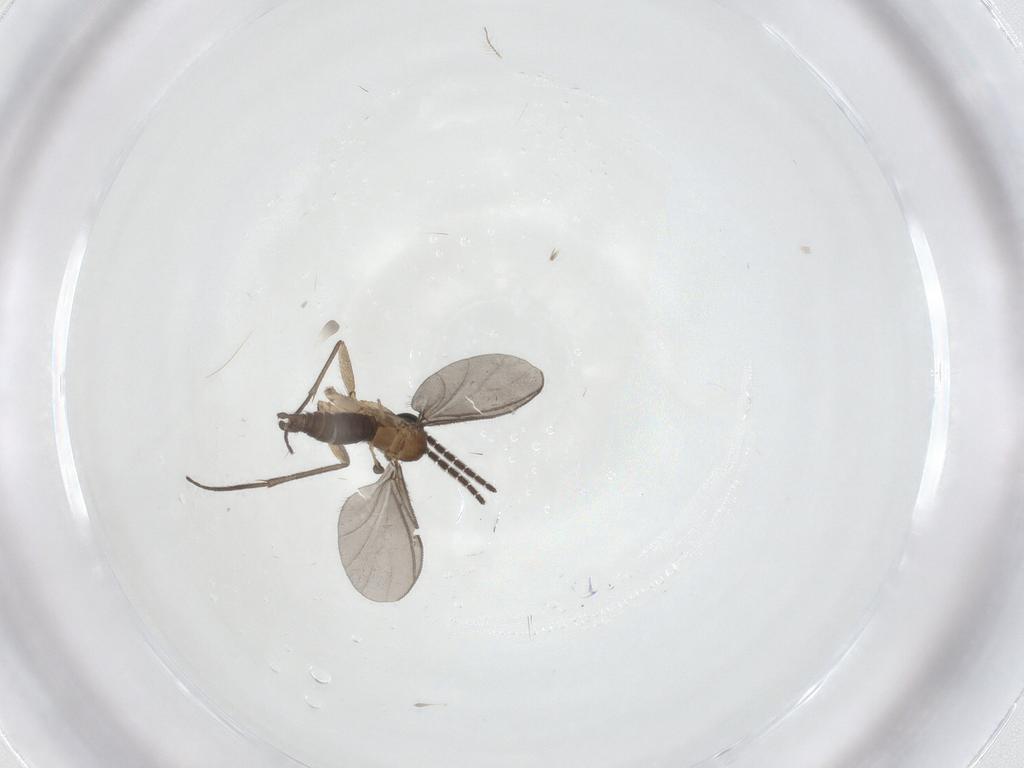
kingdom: Animalia
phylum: Arthropoda
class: Insecta
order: Diptera
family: Sciaridae
